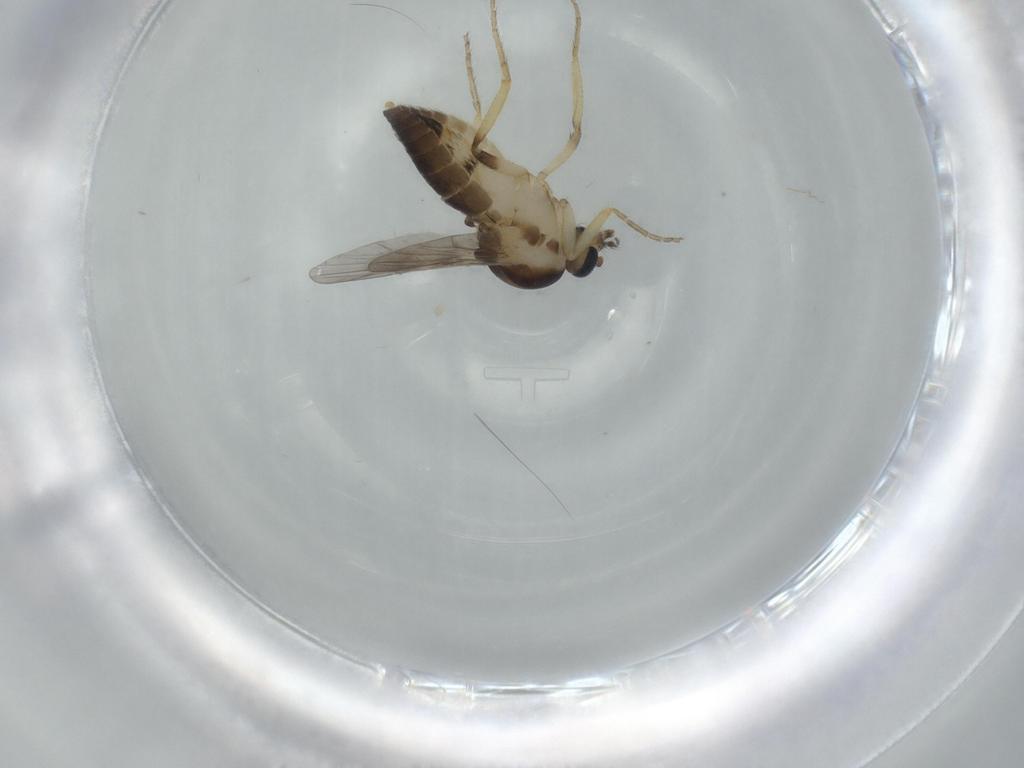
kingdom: Animalia
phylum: Arthropoda
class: Insecta
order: Diptera
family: Ceratopogonidae
